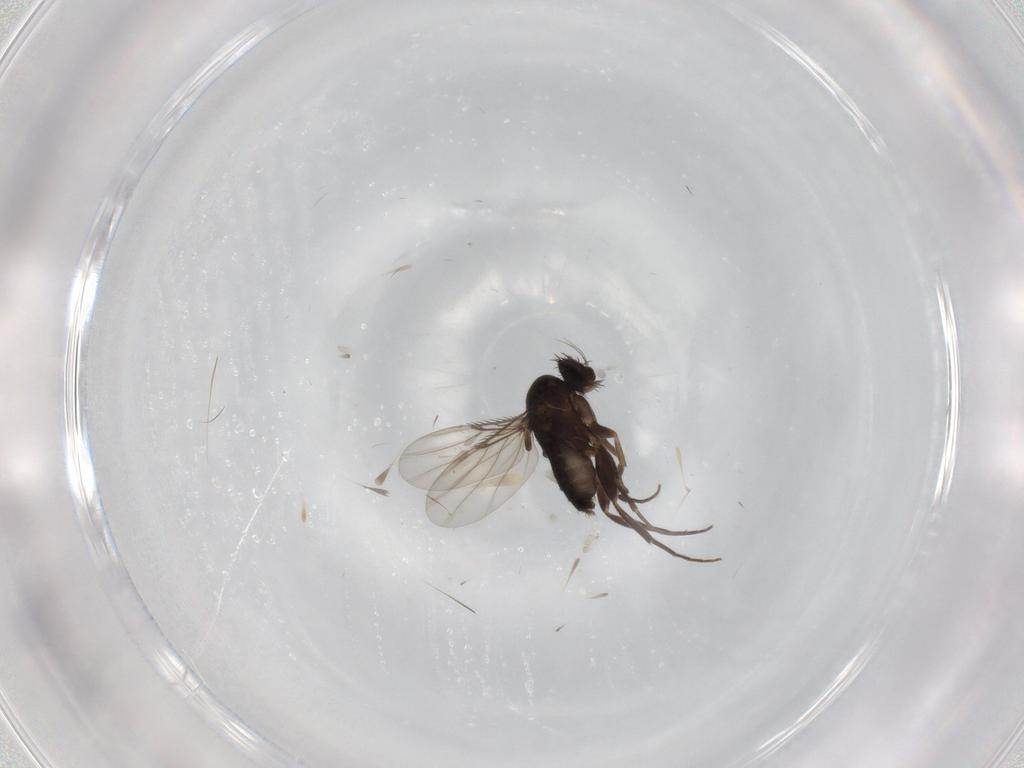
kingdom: Animalia
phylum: Arthropoda
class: Insecta
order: Diptera
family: Phoridae
